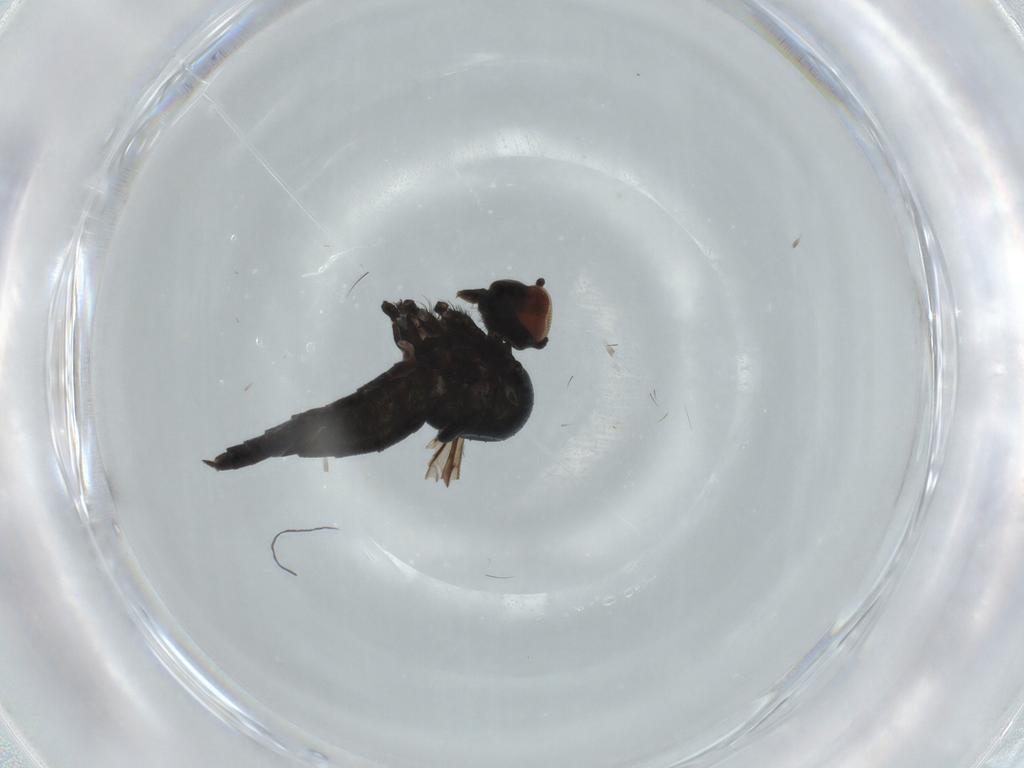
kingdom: Animalia
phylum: Arthropoda
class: Insecta
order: Diptera
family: Hybotidae
